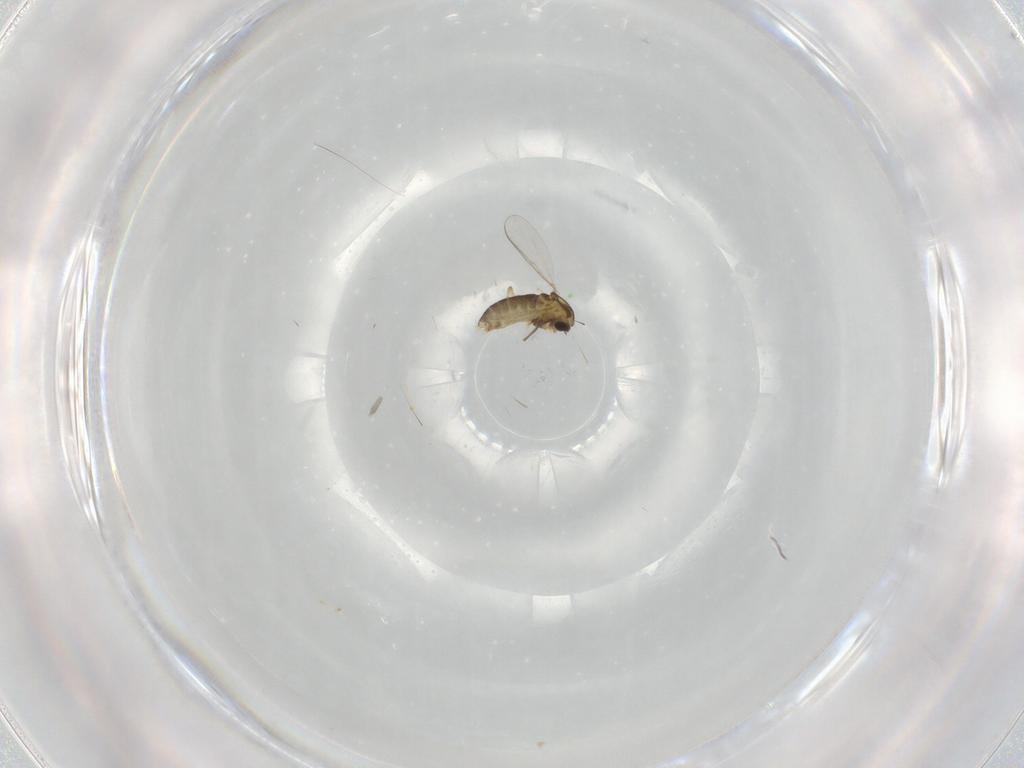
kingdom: Animalia
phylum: Arthropoda
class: Insecta
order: Diptera
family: Chironomidae
